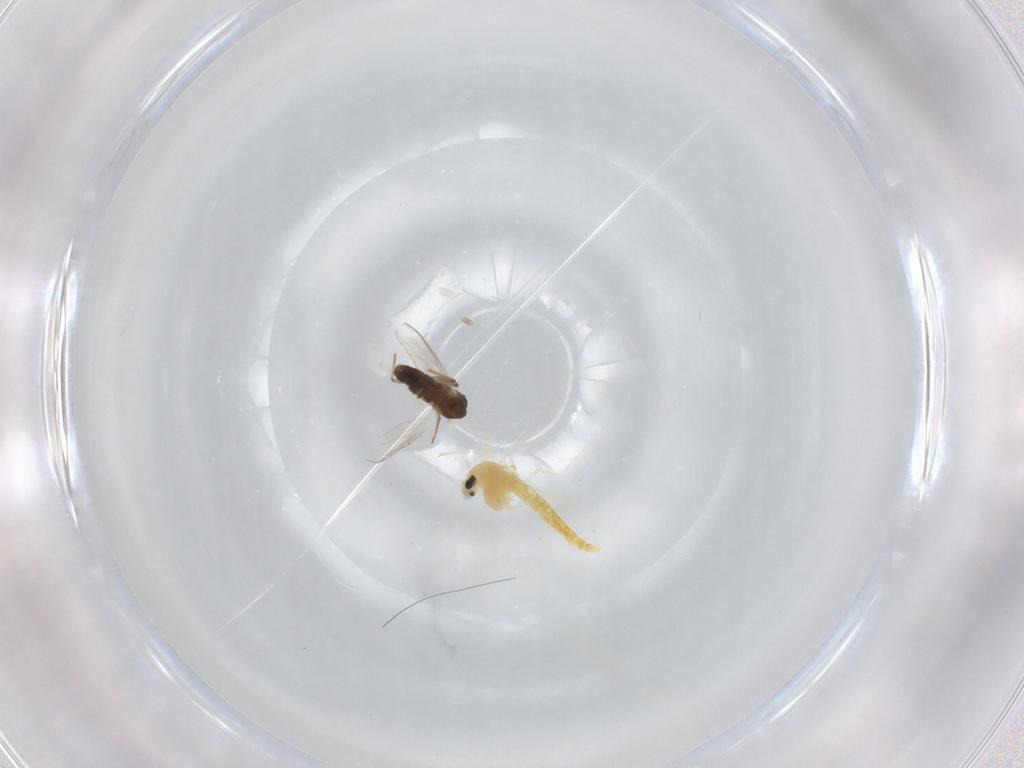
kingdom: Animalia
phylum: Arthropoda
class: Insecta
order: Diptera
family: Chironomidae
